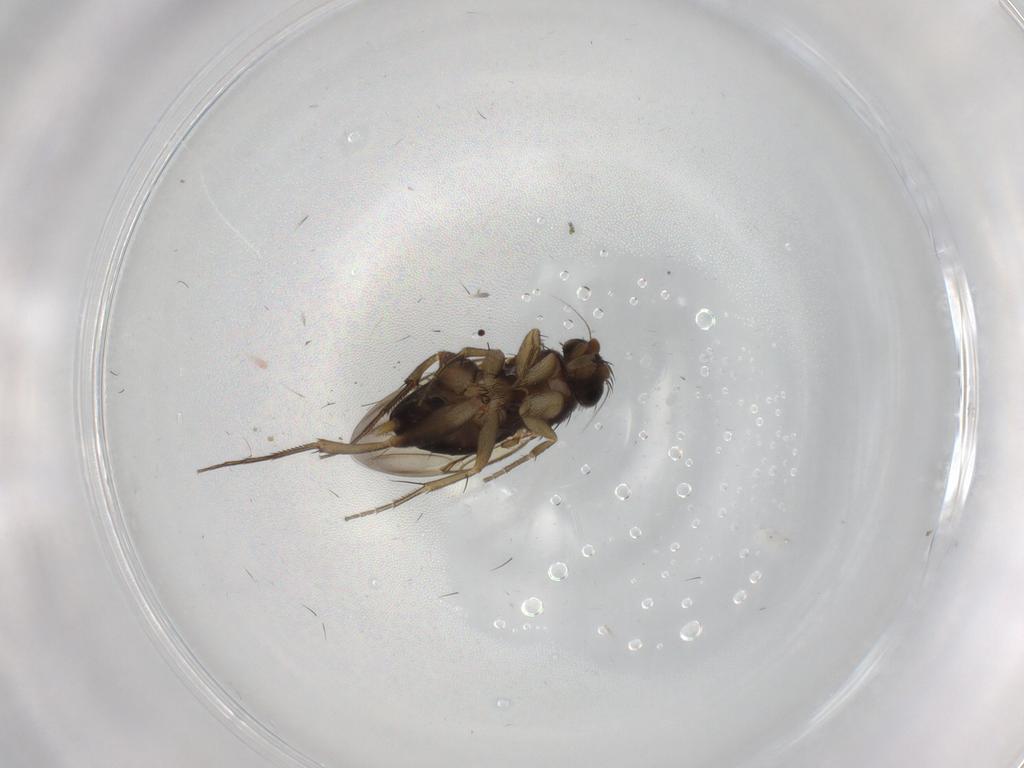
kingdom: Animalia
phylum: Arthropoda
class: Insecta
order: Diptera
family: Phoridae
